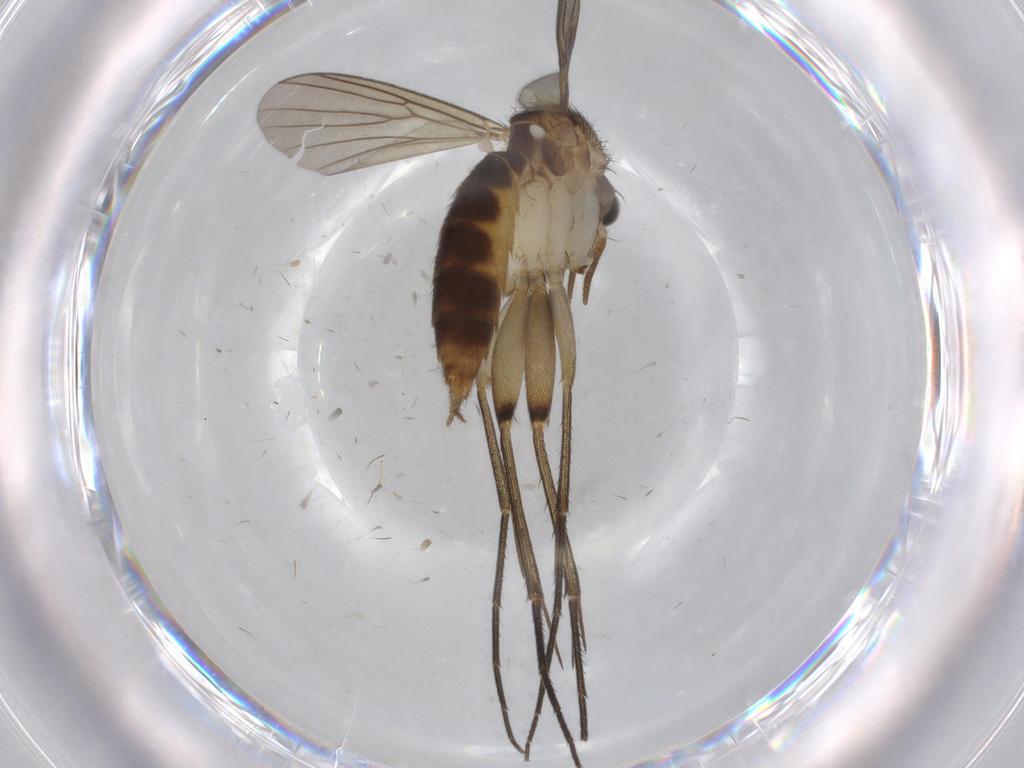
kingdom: Animalia
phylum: Arthropoda
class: Insecta
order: Diptera
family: Mycetophilidae
